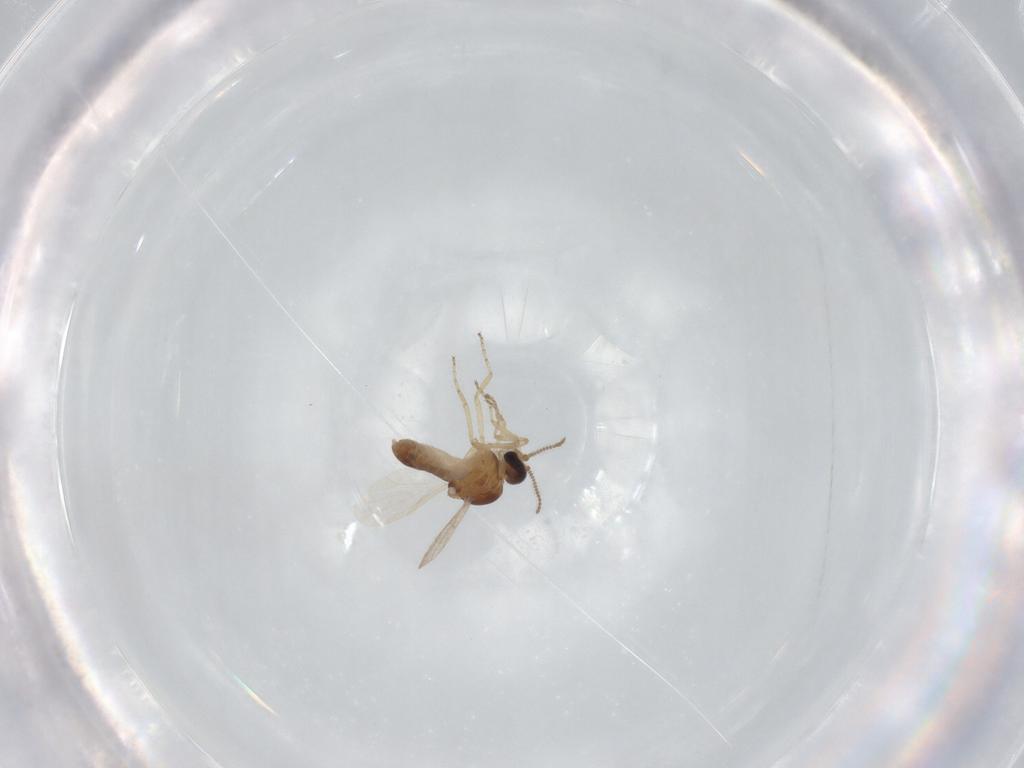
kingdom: Animalia
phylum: Arthropoda
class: Insecta
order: Diptera
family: Ceratopogonidae
